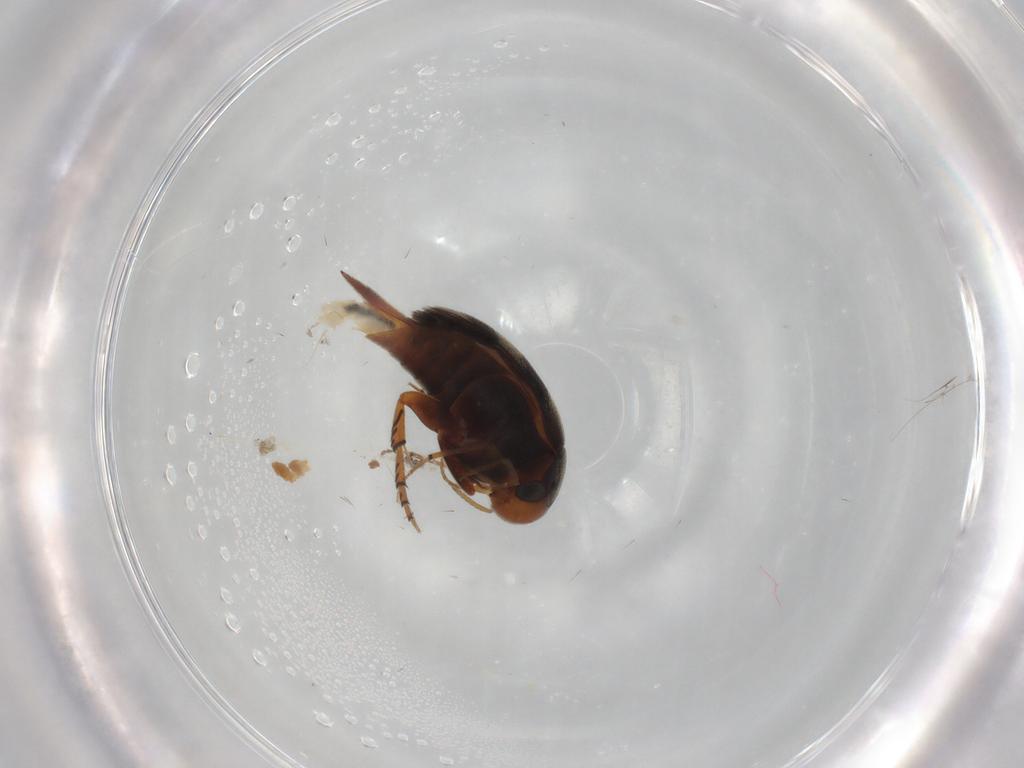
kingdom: Animalia
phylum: Arthropoda
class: Insecta
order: Coleoptera
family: Mordellidae
